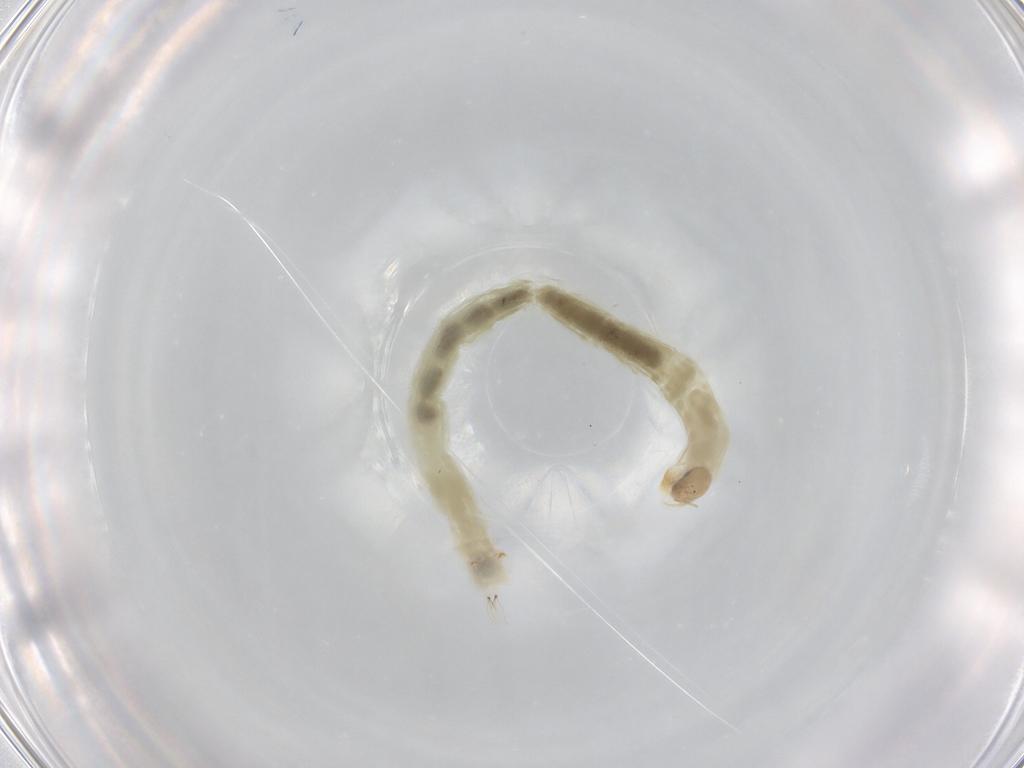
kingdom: Animalia
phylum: Arthropoda
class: Insecta
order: Diptera
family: Chironomidae
